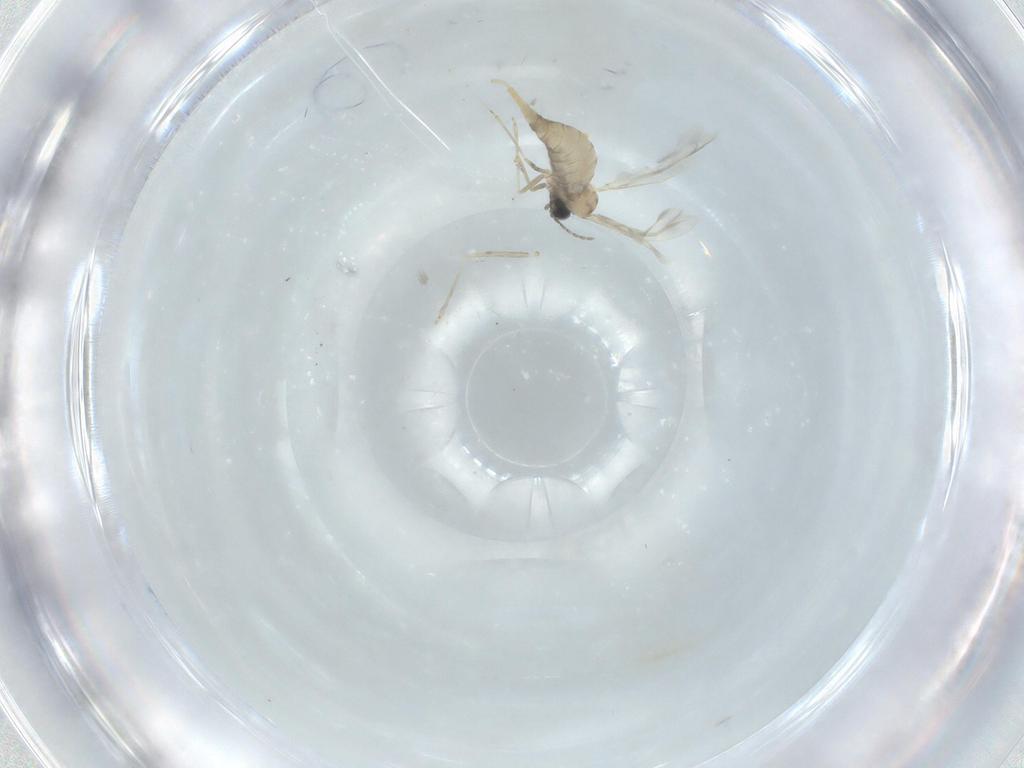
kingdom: Animalia
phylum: Arthropoda
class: Insecta
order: Diptera
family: Cecidomyiidae
